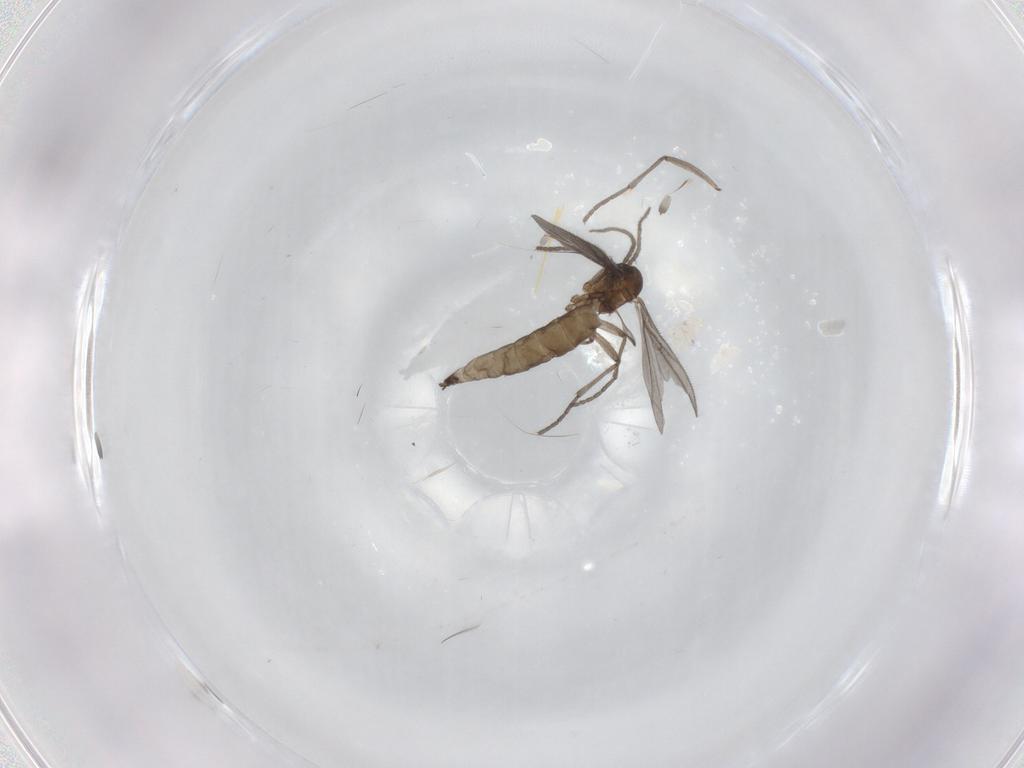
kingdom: Animalia
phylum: Arthropoda
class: Insecta
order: Diptera
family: Sciaridae
